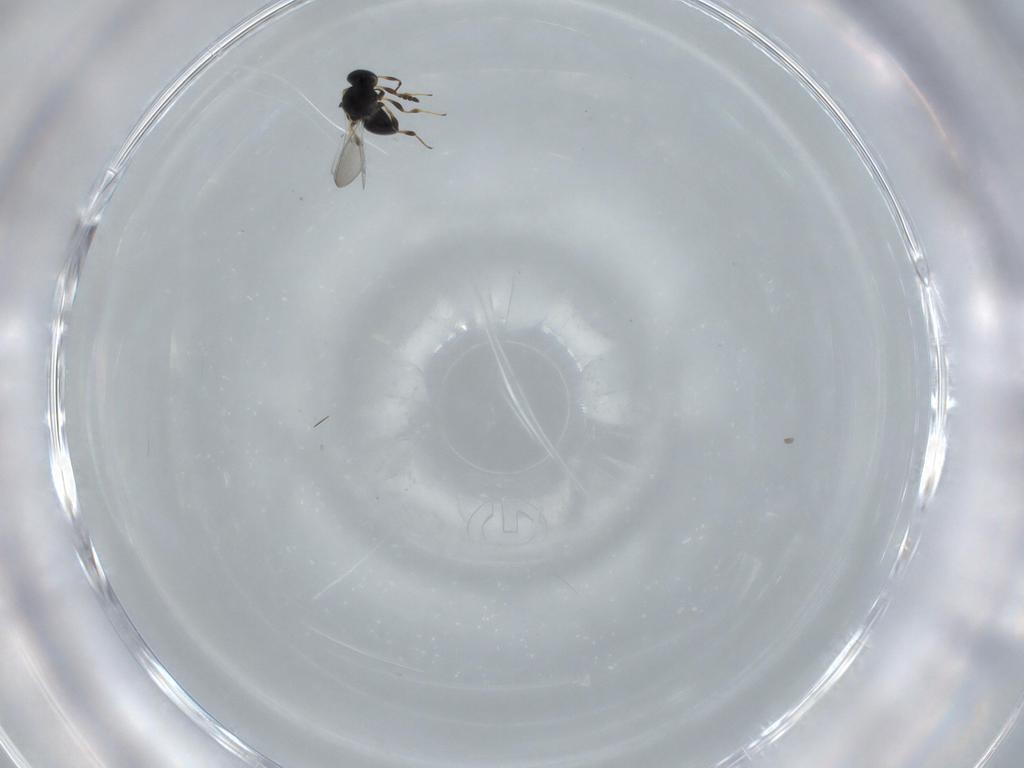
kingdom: Animalia
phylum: Arthropoda
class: Insecta
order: Hymenoptera
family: Platygastridae
